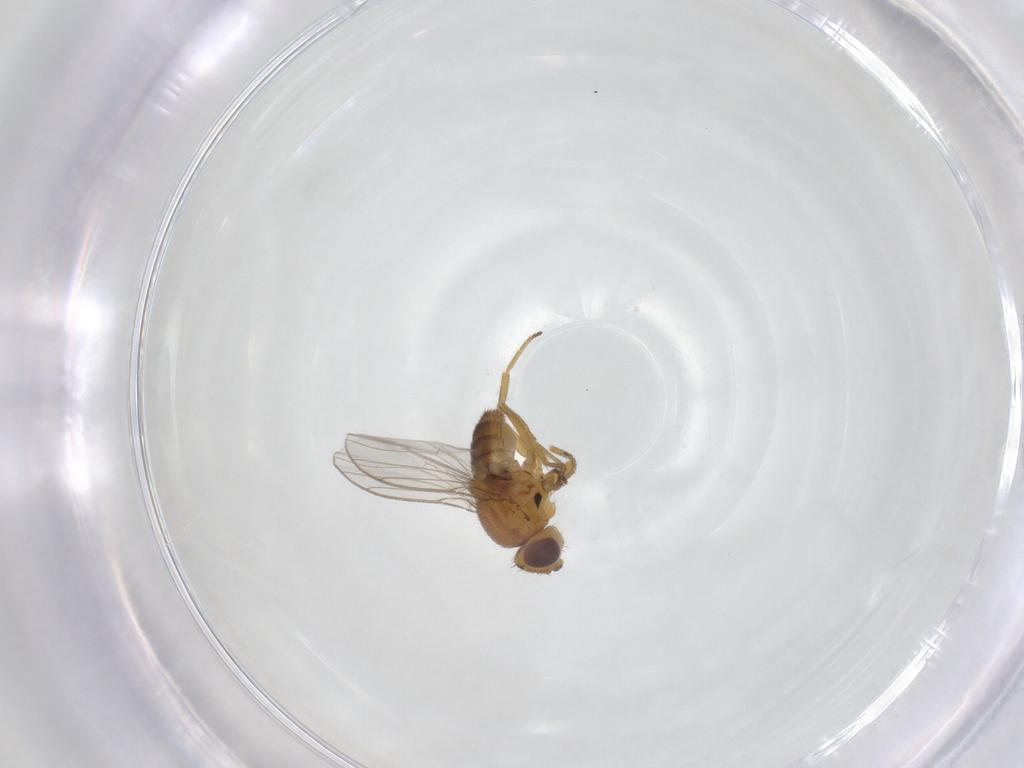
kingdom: Animalia
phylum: Arthropoda
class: Insecta
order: Diptera
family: Chloropidae
